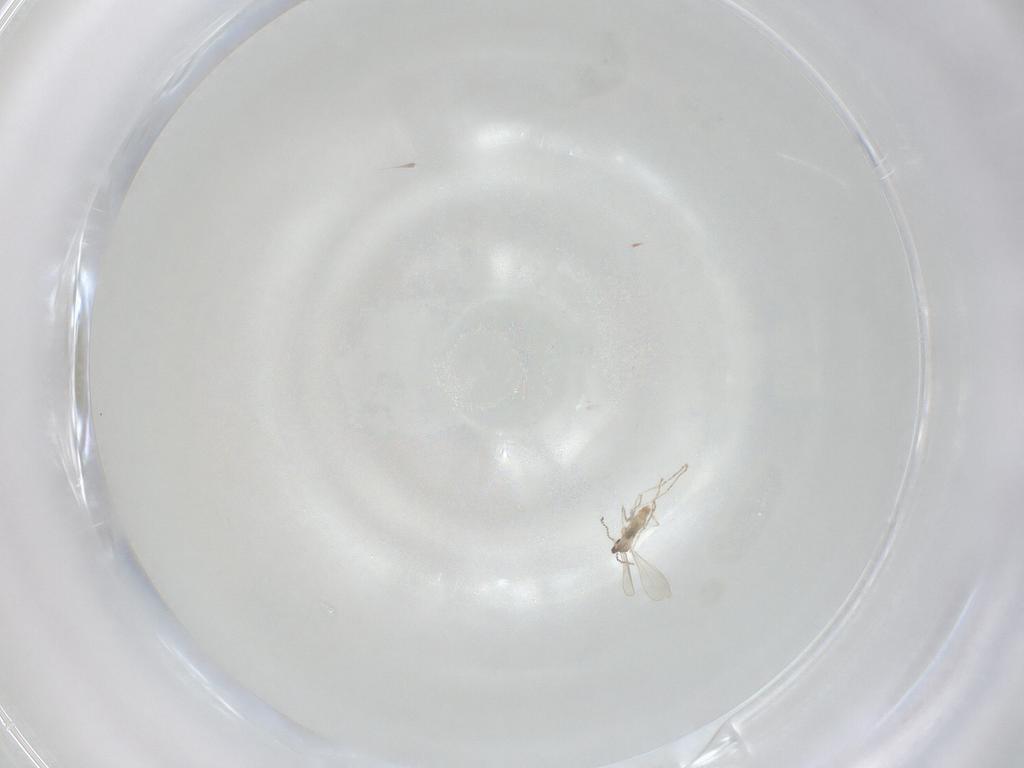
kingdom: Animalia
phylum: Arthropoda
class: Insecta
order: Diptera
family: Cecidomyiidae
